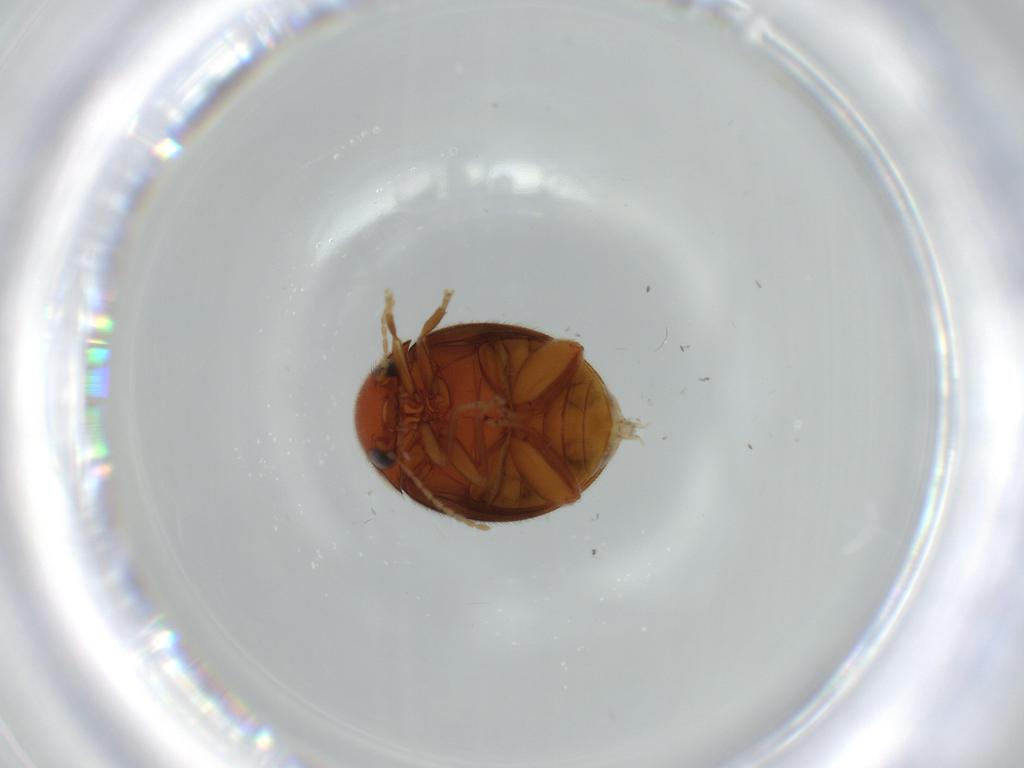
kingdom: Animalia
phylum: Arthropoda
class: Insecta
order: Coleoptera
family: Scirtidae
